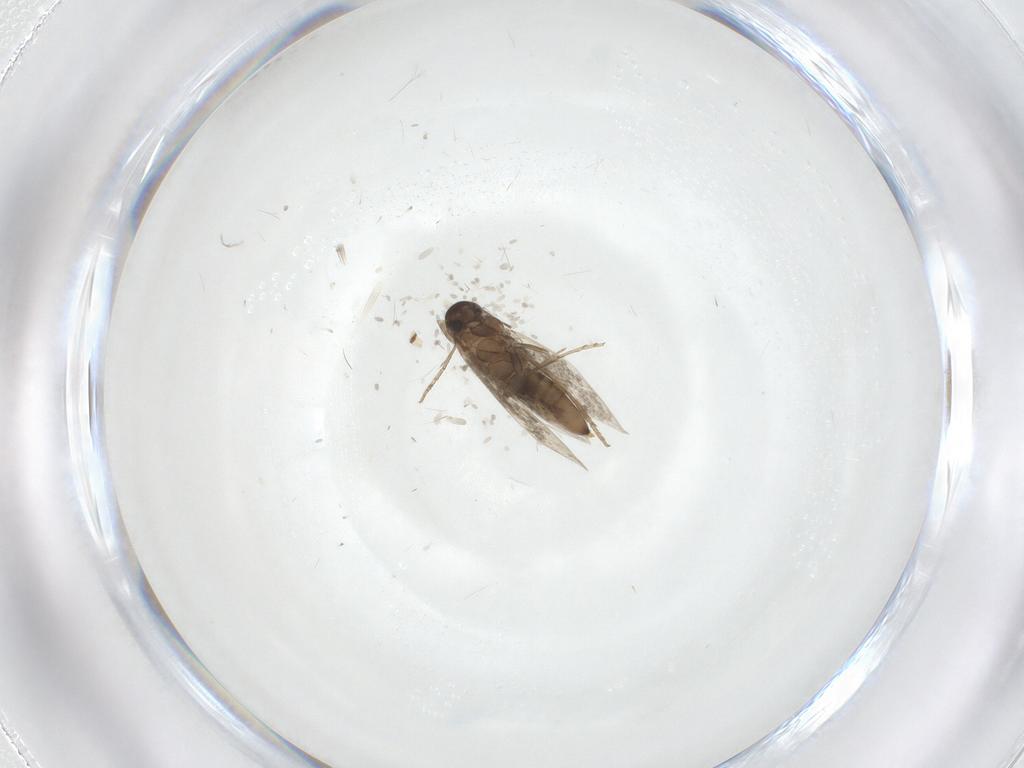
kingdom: Animalia
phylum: Arthropoda
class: Insecta
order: Lepidoptera
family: Heliozelidae
